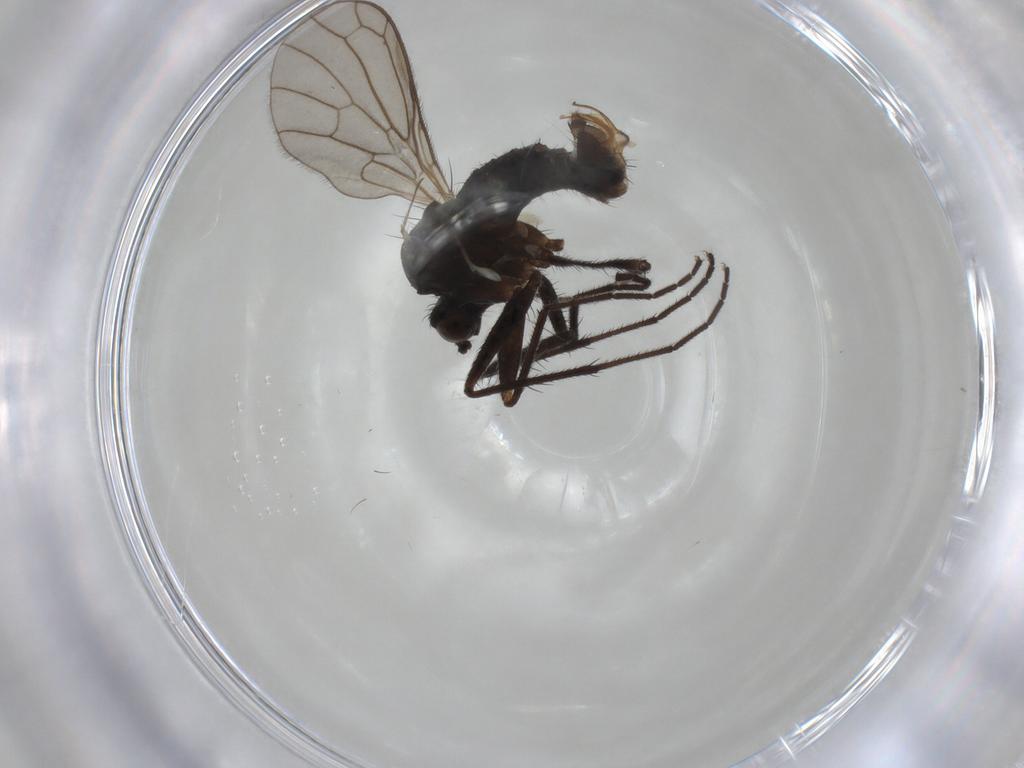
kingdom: Animalia
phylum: Arthropoda
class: Insecta
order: Diptera
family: Empididae
